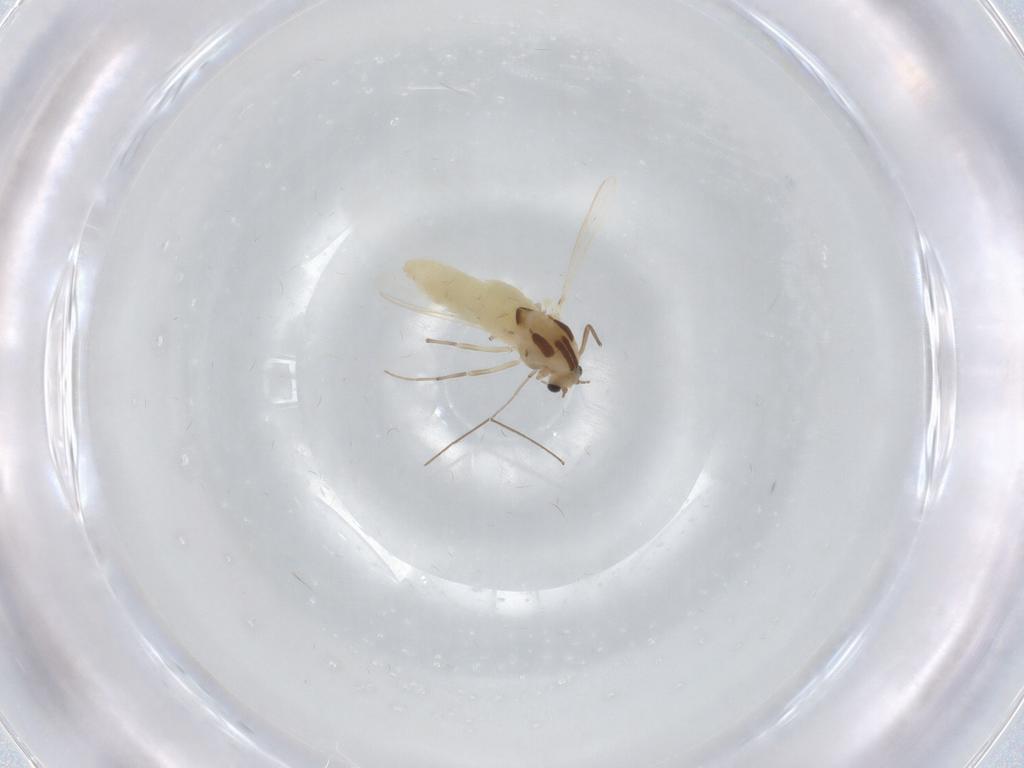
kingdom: Animalia
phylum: Arthropoda
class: Insecta
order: Diptera
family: Chironomidae
